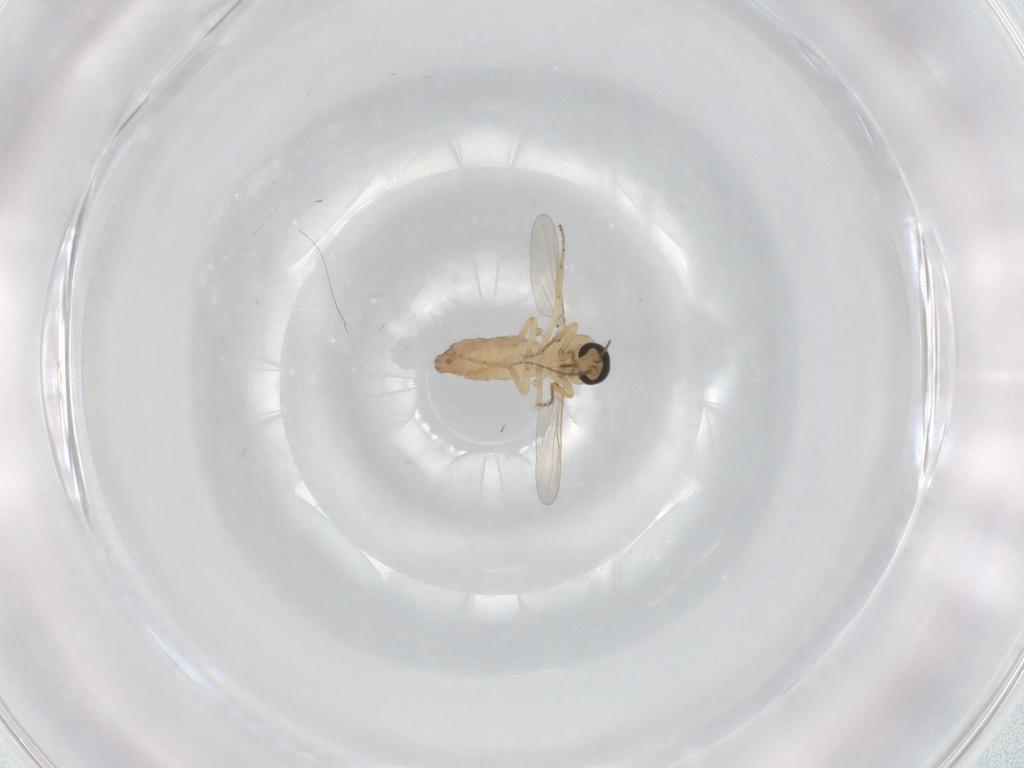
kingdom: Animalia
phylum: Arthropoda
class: Insecta
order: Diptera
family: Ceratopogonidae
